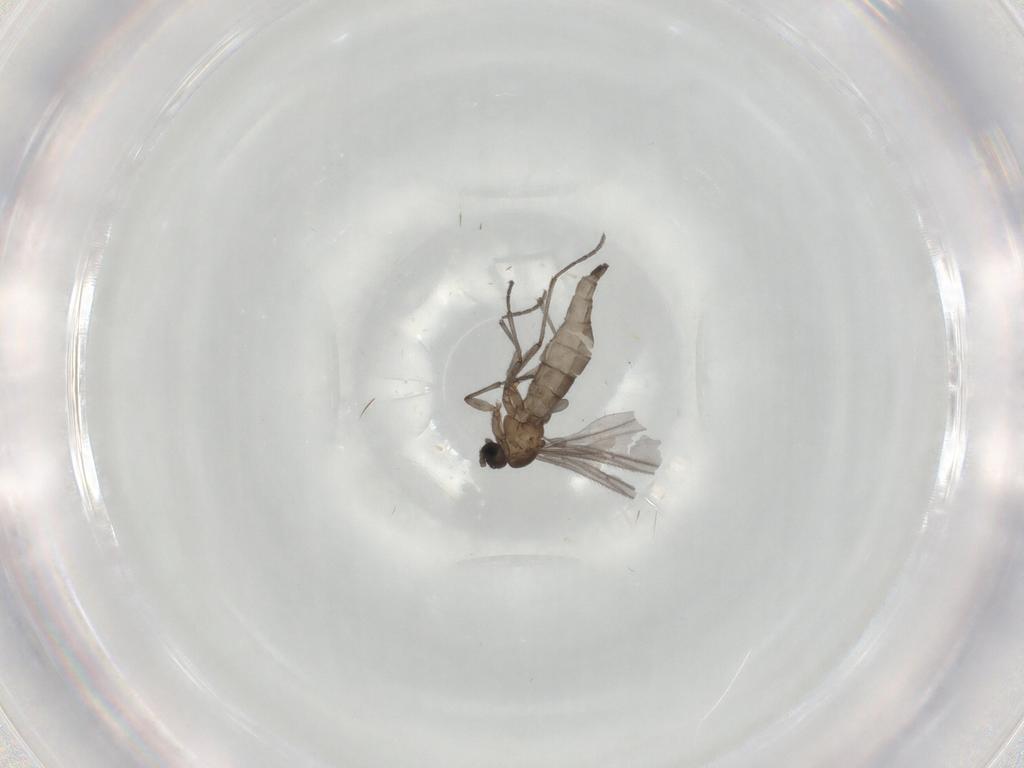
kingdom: Animalia
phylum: Arthropoda
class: Insecta
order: Diptera
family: Sciaridae
